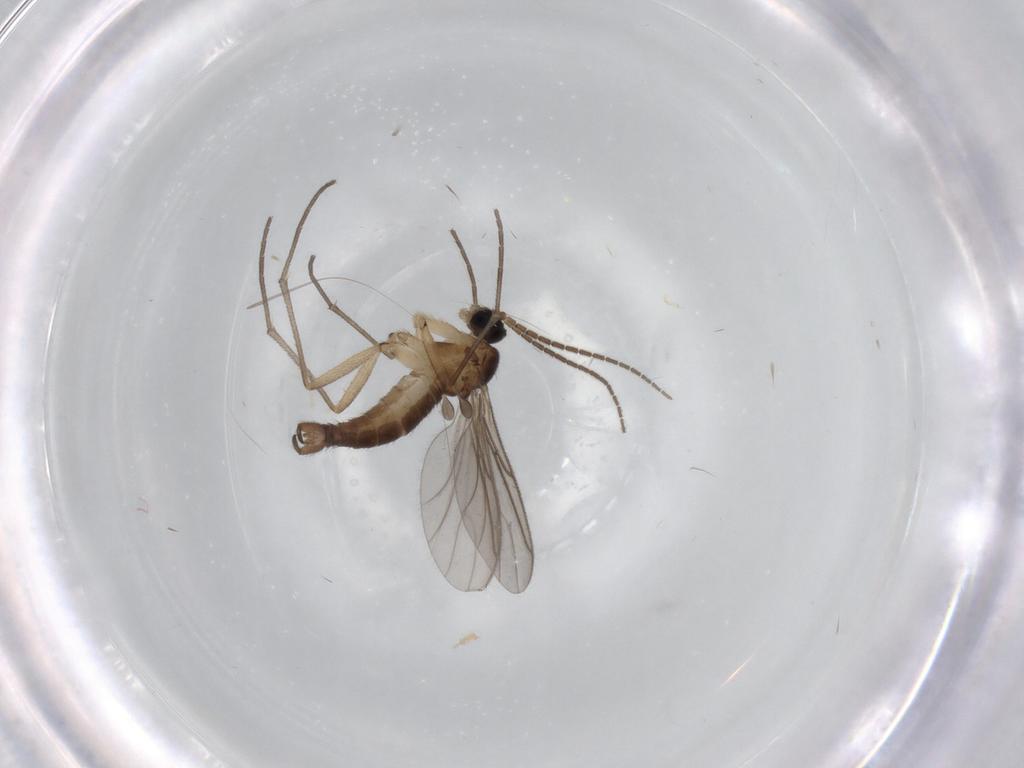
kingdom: Animalia
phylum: Arthropoda
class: Insecta
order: Diptera
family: Sciaridae
